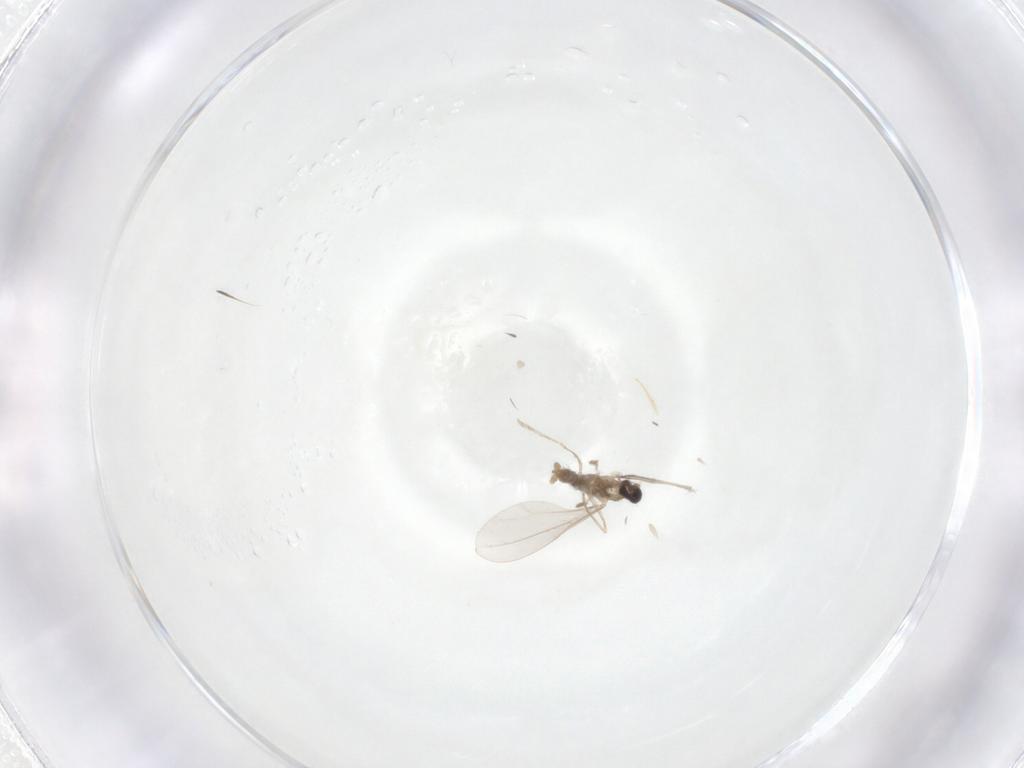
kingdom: Animalia
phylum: Arthropoda
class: Insecta
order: Diptera
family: Cecidomyiidae
